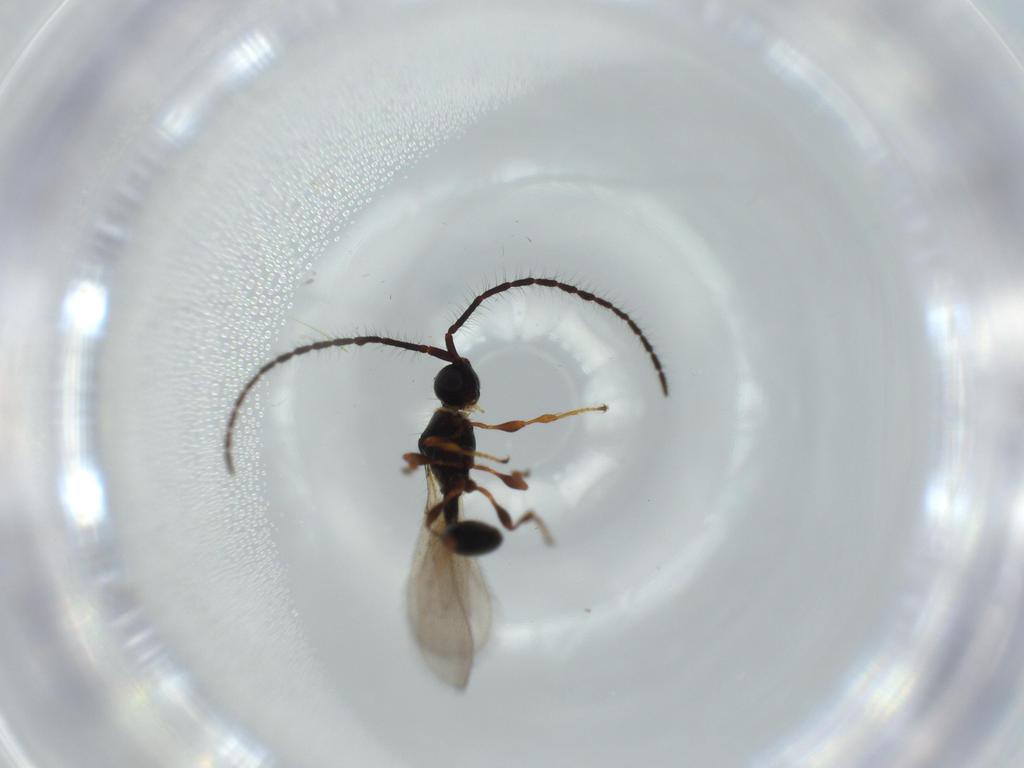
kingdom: Animalia
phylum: Arthropoda
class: Insecta
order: Hymenoptera
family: Diapriidae
